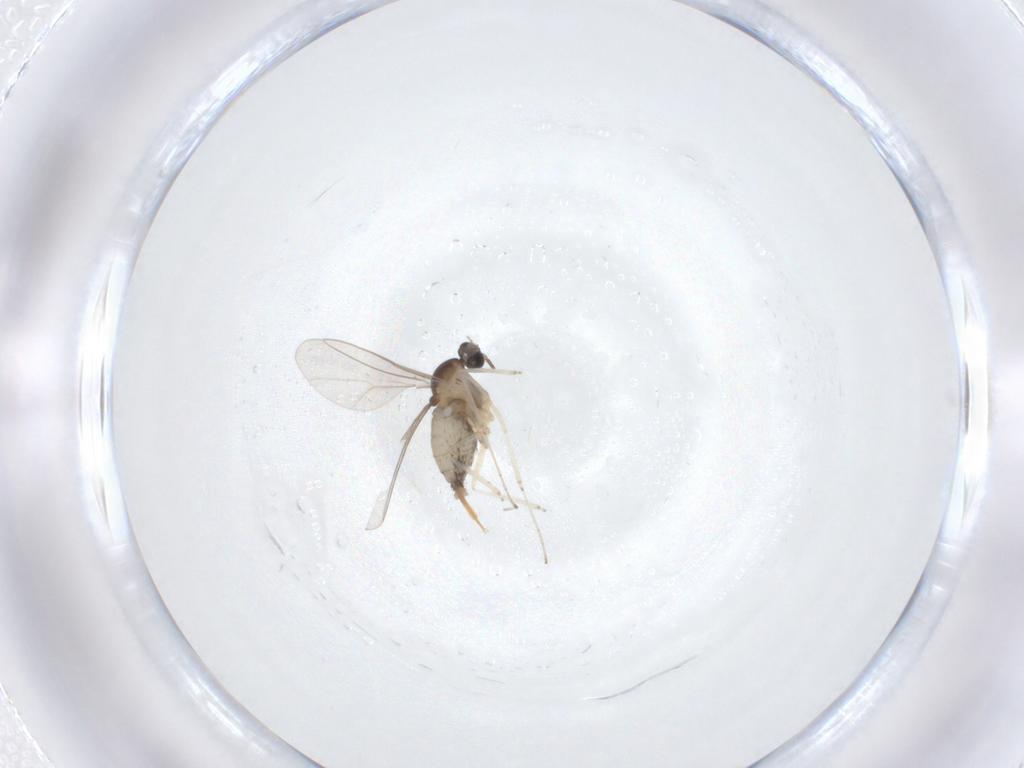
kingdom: Animalia
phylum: Arthropoda
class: Insecta
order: Diptera
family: Cecidomyiidae
